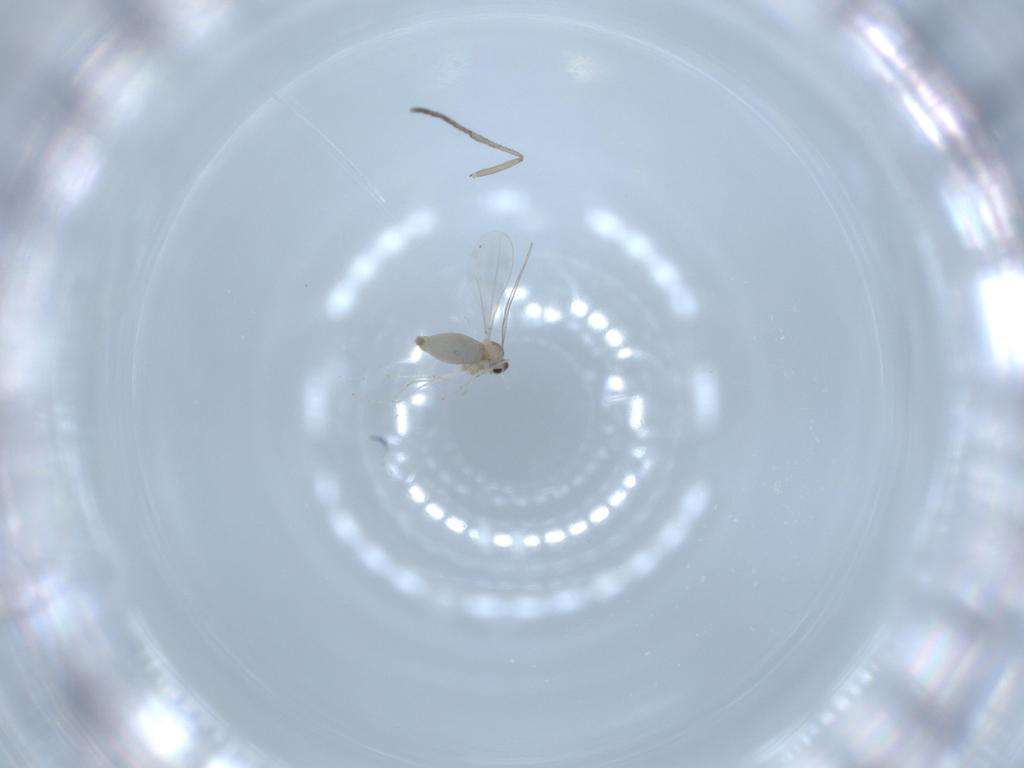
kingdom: Animalia
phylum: Arthropoda
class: Insecta
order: Diptera
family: Cecidomyiidae
